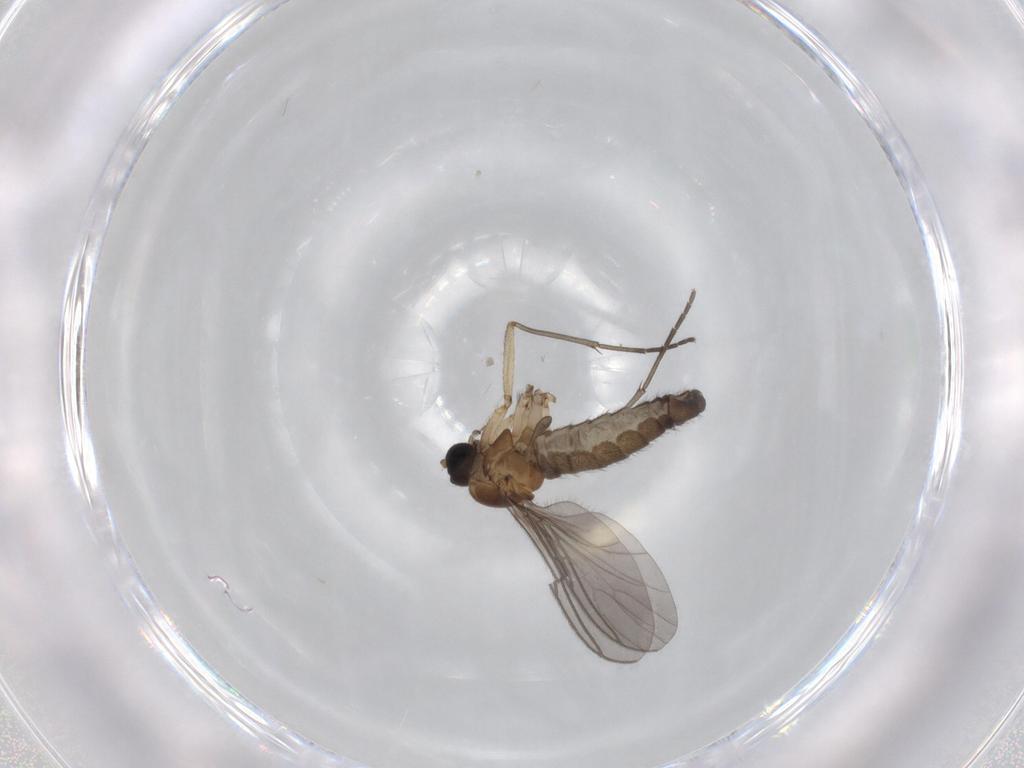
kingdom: Animalia
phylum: Arthropoda
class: Insecta
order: Diptera
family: Sciaridae
